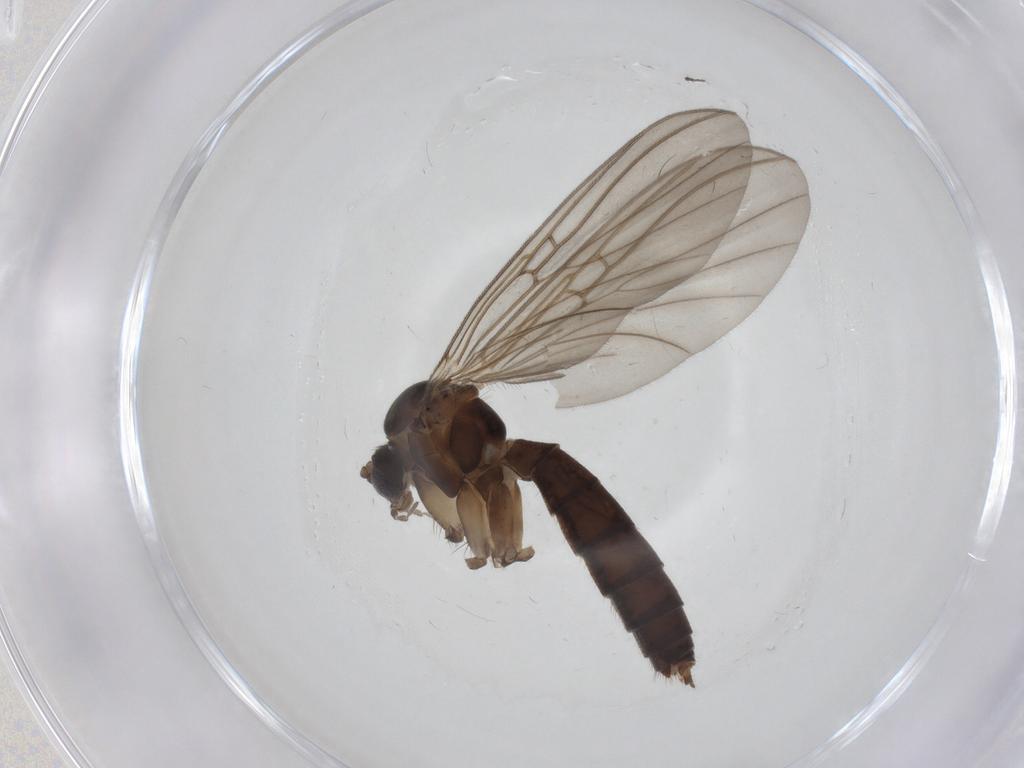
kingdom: Animalia
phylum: Arthropoda
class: Insecta
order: Diptera
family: Mycetophilidae
